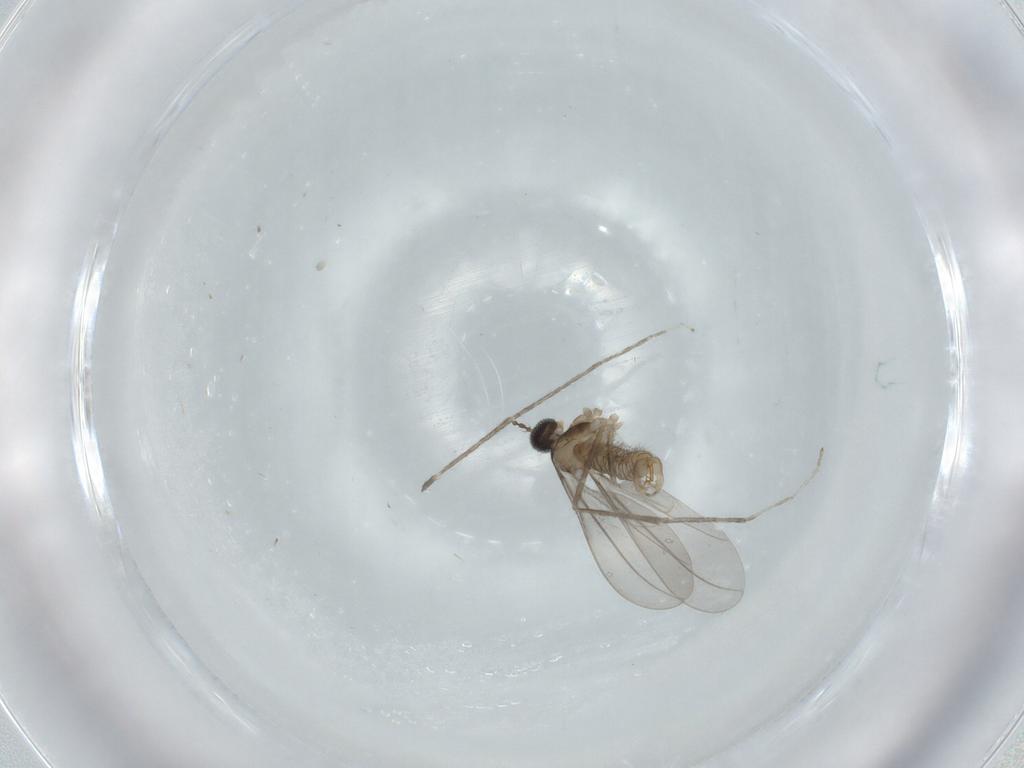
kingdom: Animalia
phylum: Arthropoda
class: Insecta
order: Diptera
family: Cecidomyiidae
